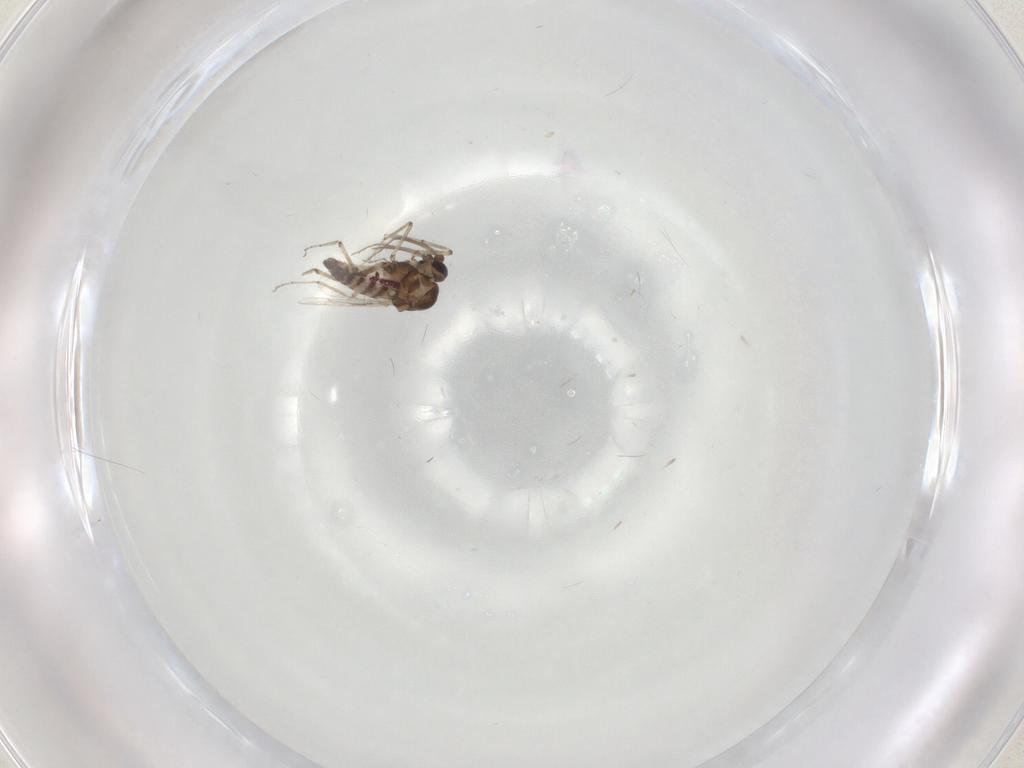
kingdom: Animalia
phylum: Arthropoda
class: Insecta
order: Diptera
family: Ceratopogonidae
